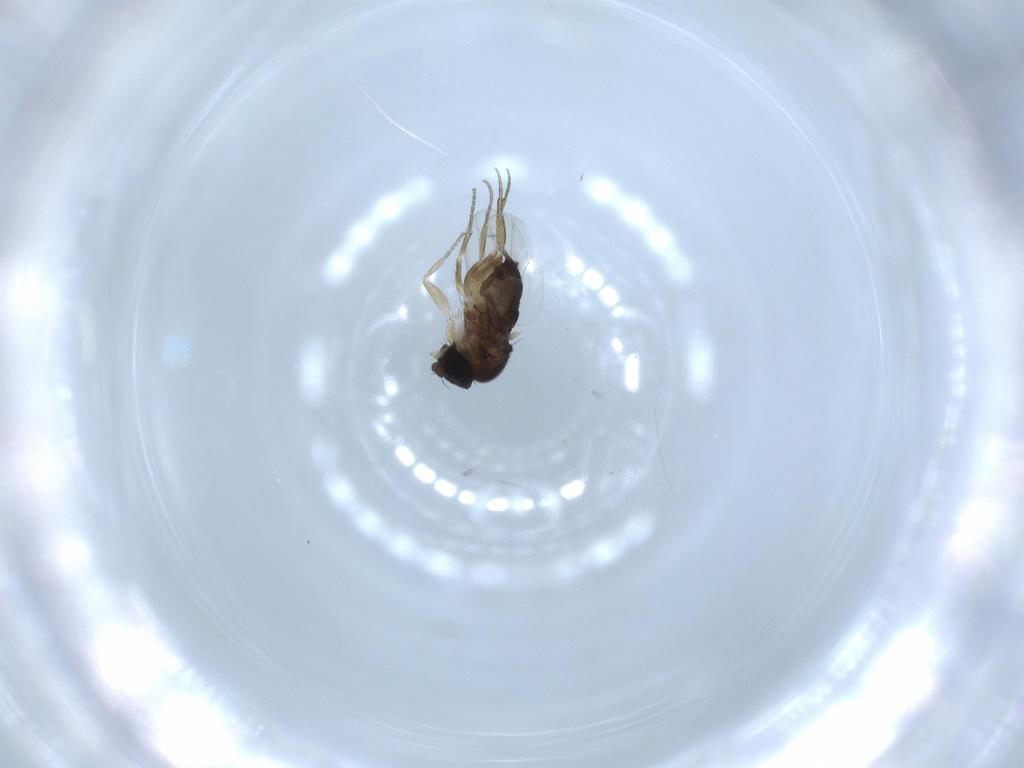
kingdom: Animalia
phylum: Arthropoda
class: Insecta
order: Diptera
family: Phoridae
